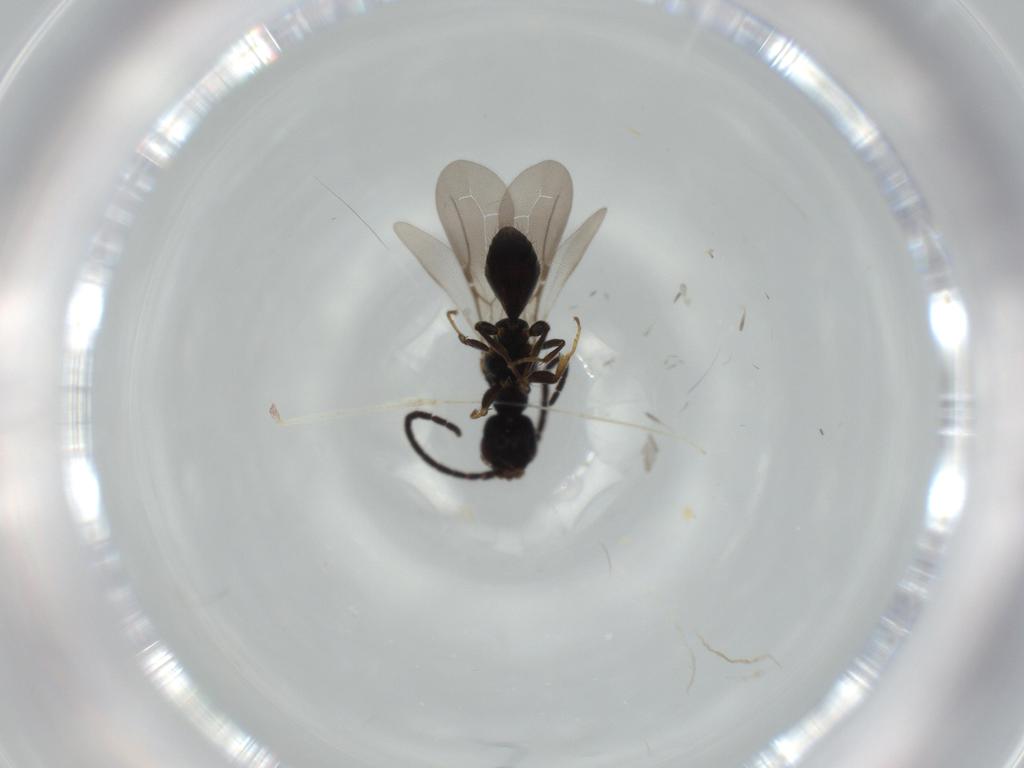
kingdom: Animalia
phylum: Arthropoda
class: Insecta
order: Hymenoptera
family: Bethylidae
